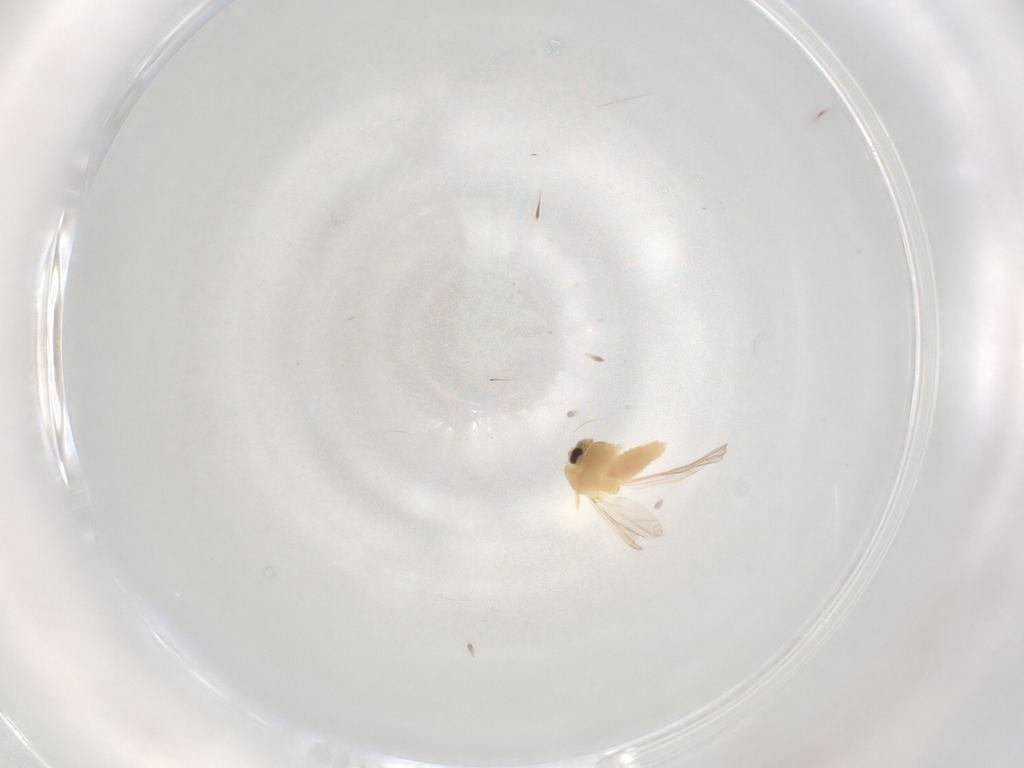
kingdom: Animalia
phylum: Arthropoda
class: Insecta
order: Diptera
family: Chironomidae
